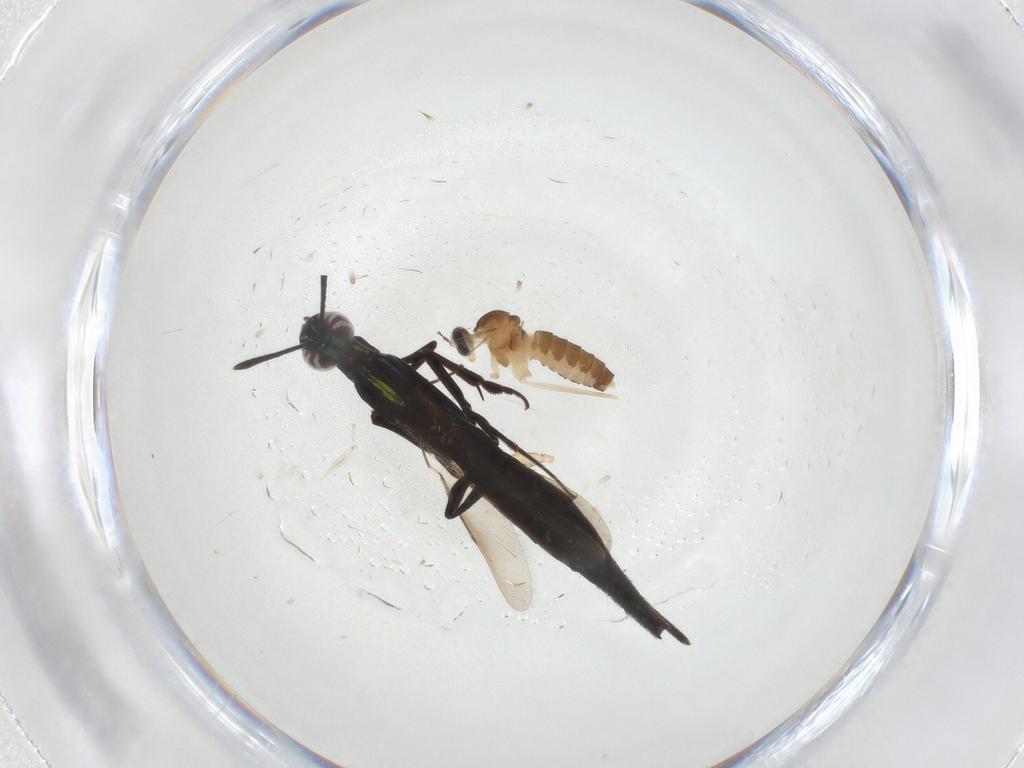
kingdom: Animalia
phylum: Arthropoda
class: Insecta
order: Diptera
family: Cecidomyiidae
